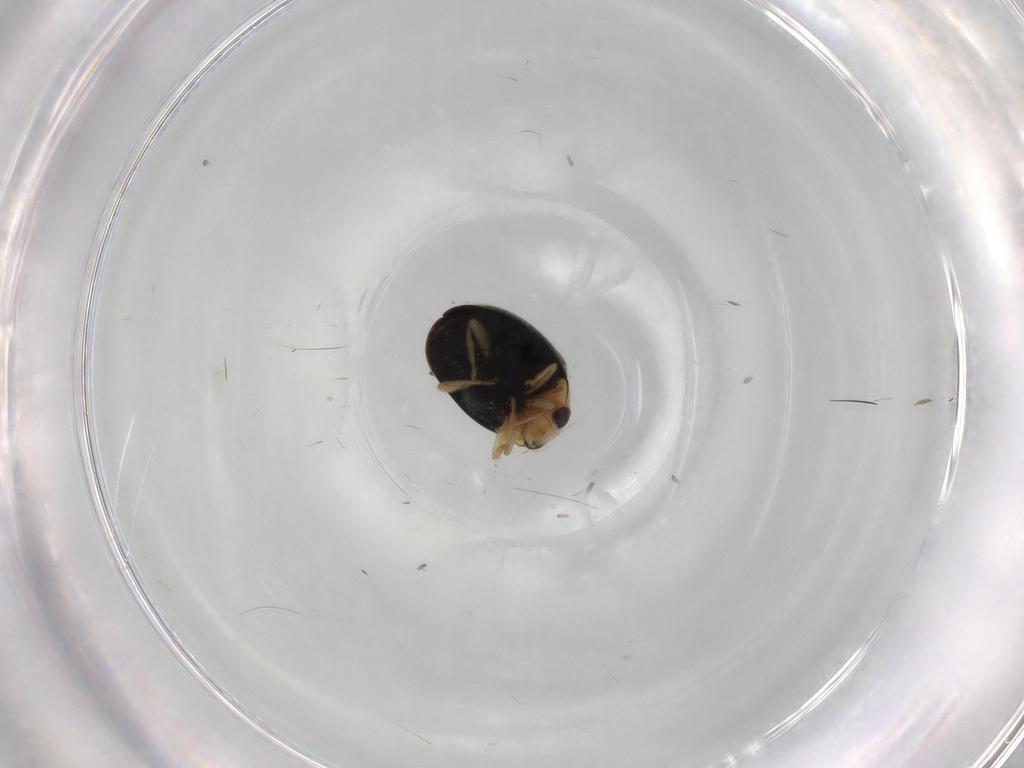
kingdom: Animalia
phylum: Arthropoda
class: Insecta
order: Coleoptera
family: Coccinellidae
